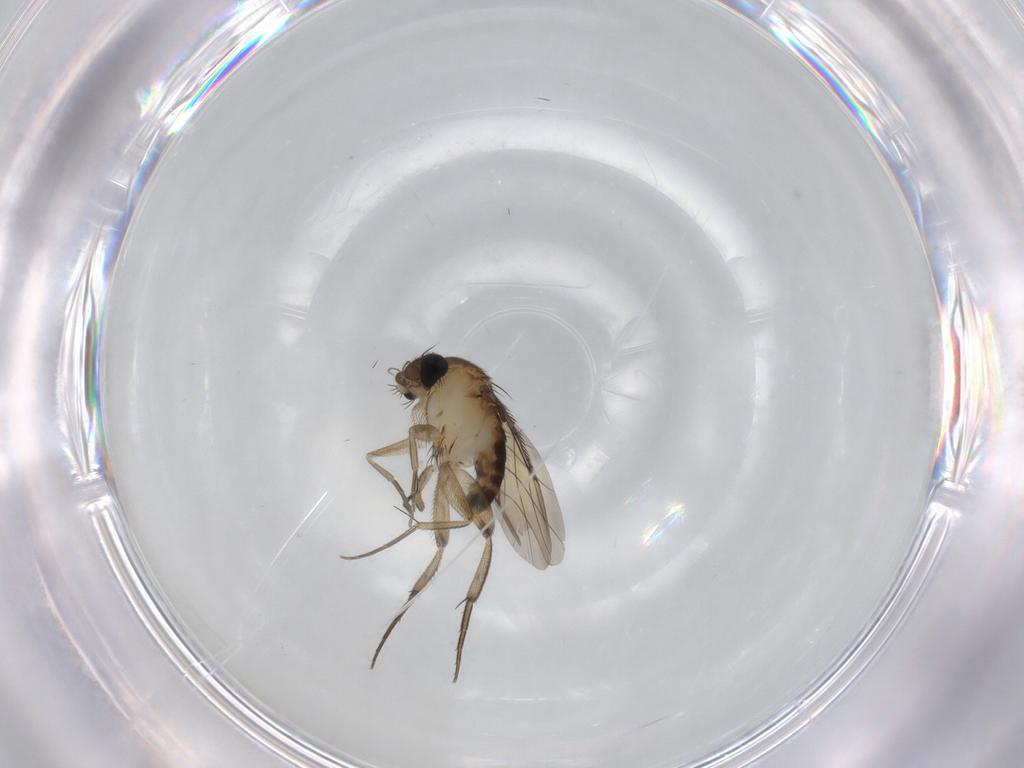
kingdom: Animalia
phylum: Arthropoda
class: Insecta
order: Diptera
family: Phoridae
